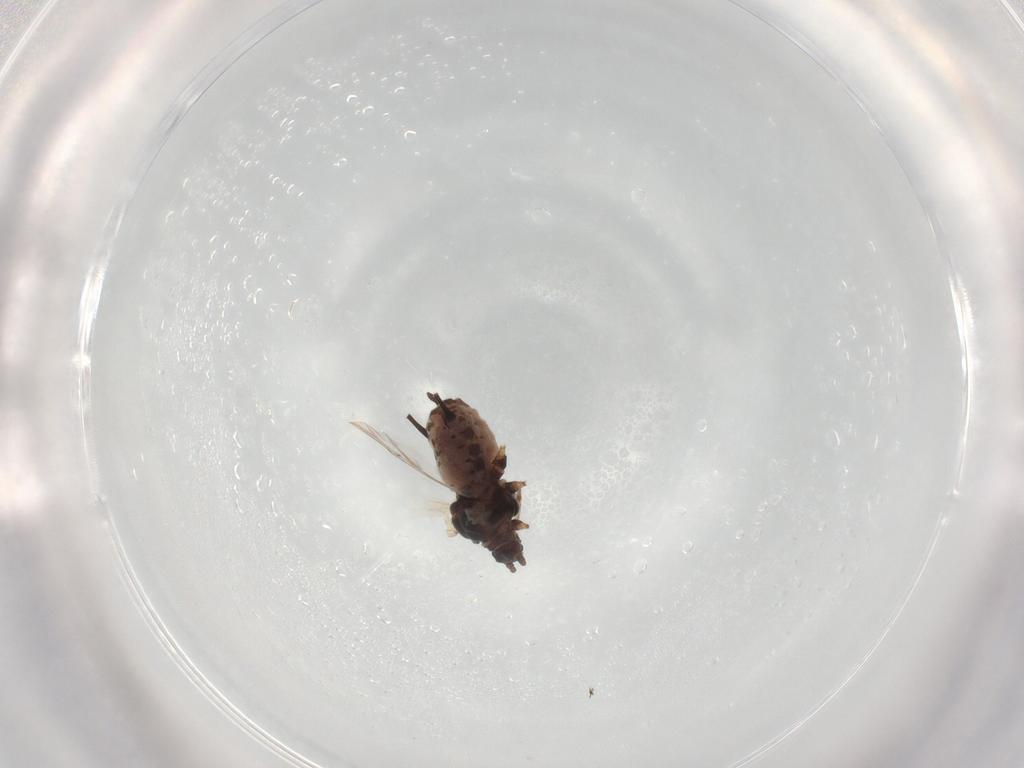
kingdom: Animalia
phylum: Arthropoda
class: Insecta
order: Hemiptera
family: Aphididae
